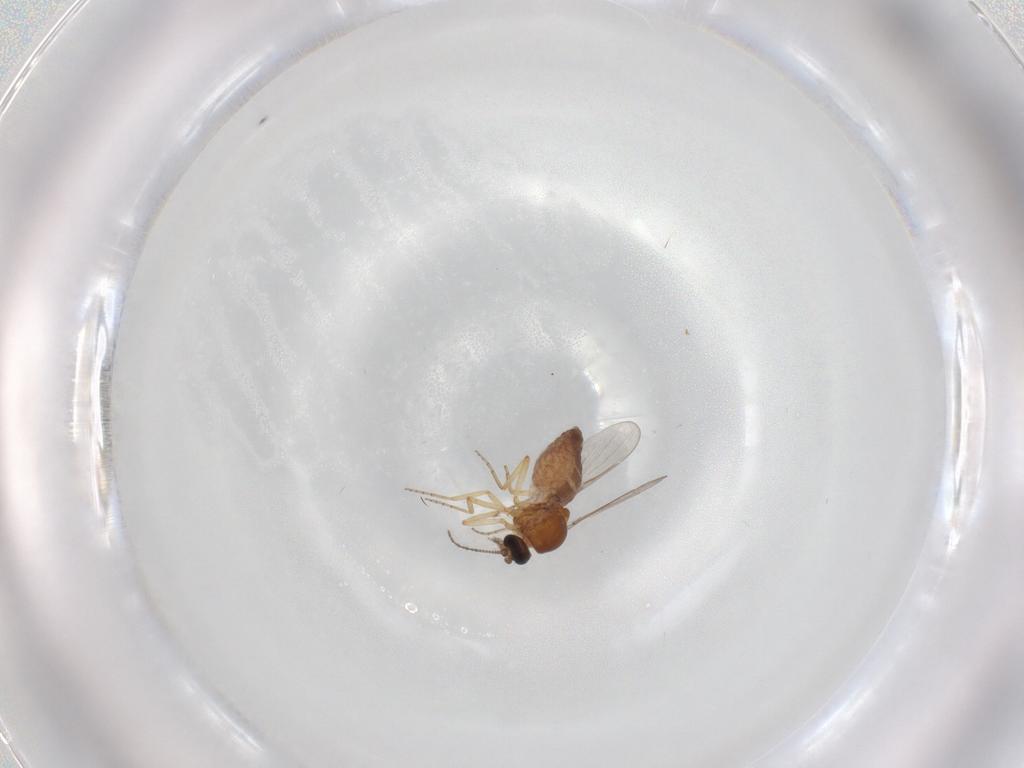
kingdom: Animalia
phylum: Arthropoda
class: Insecta
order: Diptera
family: Ceratopogonidae
